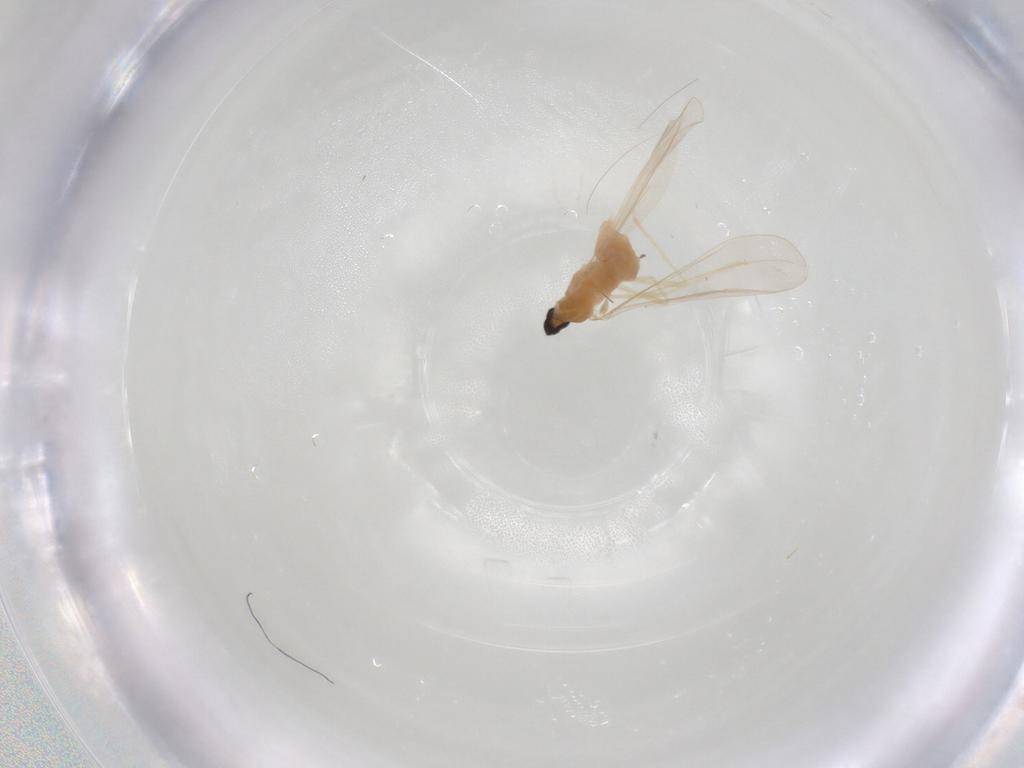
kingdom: Animalia
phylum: Arthropoda
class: Insecta
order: Diptera
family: Cecidomyiidae
